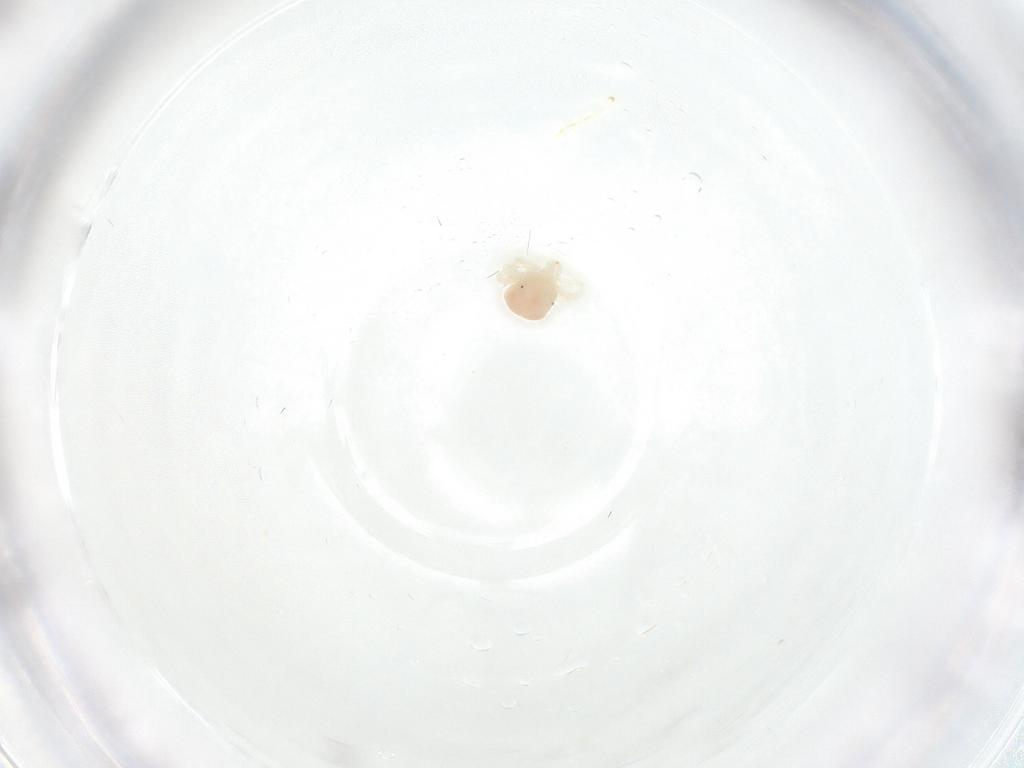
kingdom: Animalia
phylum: Arthropoda
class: Arachnida
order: Trombidiformes
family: Anystidae
